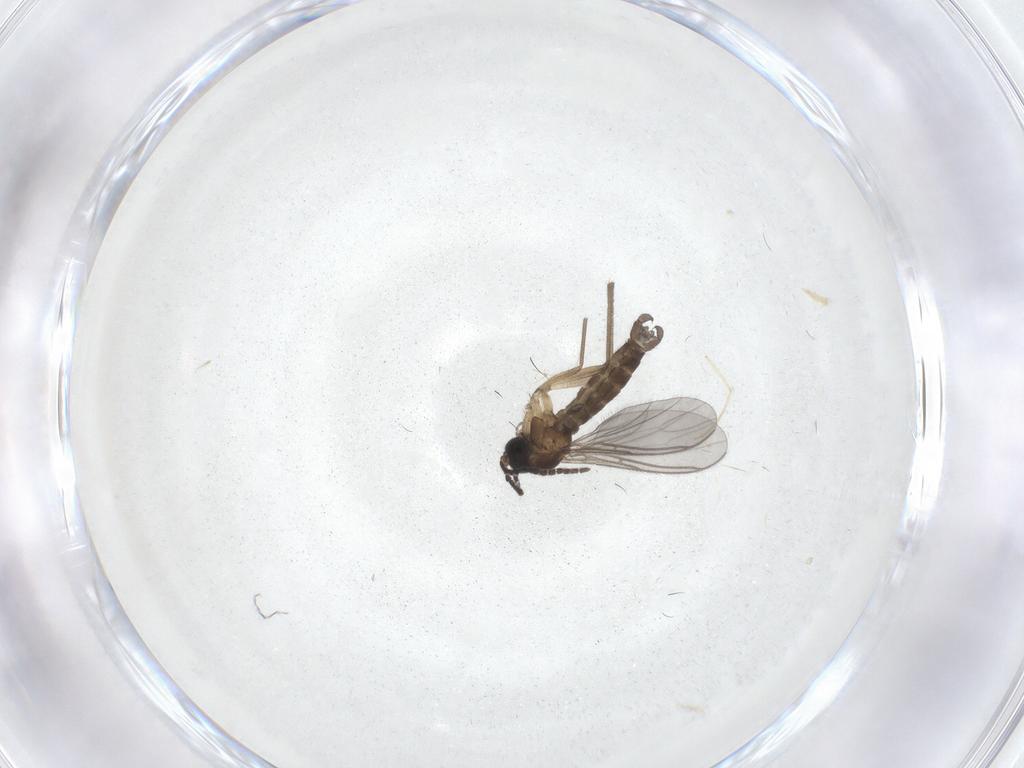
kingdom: Animalia
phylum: Arthropoda
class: Insecta
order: Diptera
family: Sciaridae
